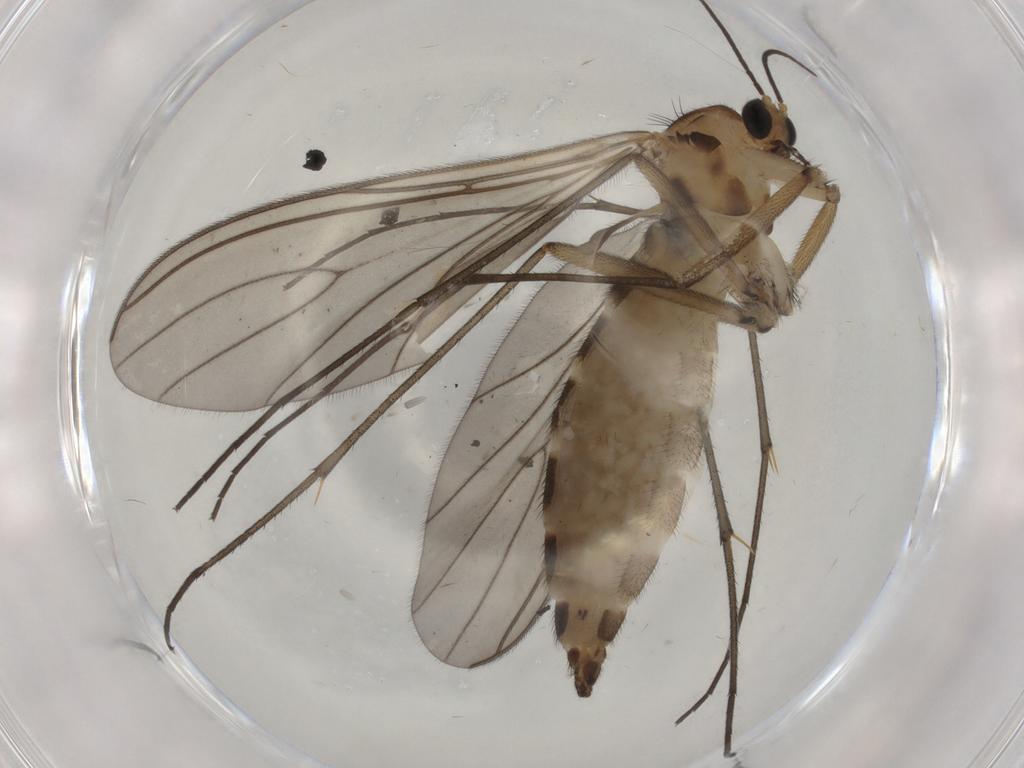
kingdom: Animalia
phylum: Arthropoda
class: Insecta
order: Diptera
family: Sciaridae
